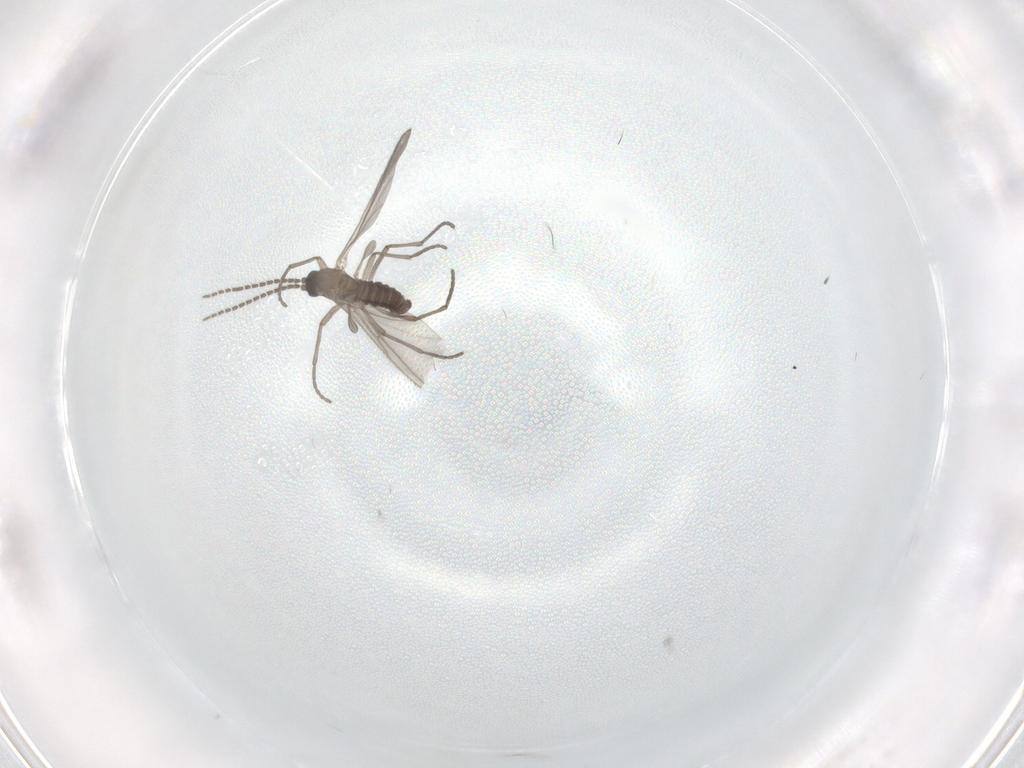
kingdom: Animalia
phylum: Arthropoda
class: Insecta
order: Diptera
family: Sciaridae
